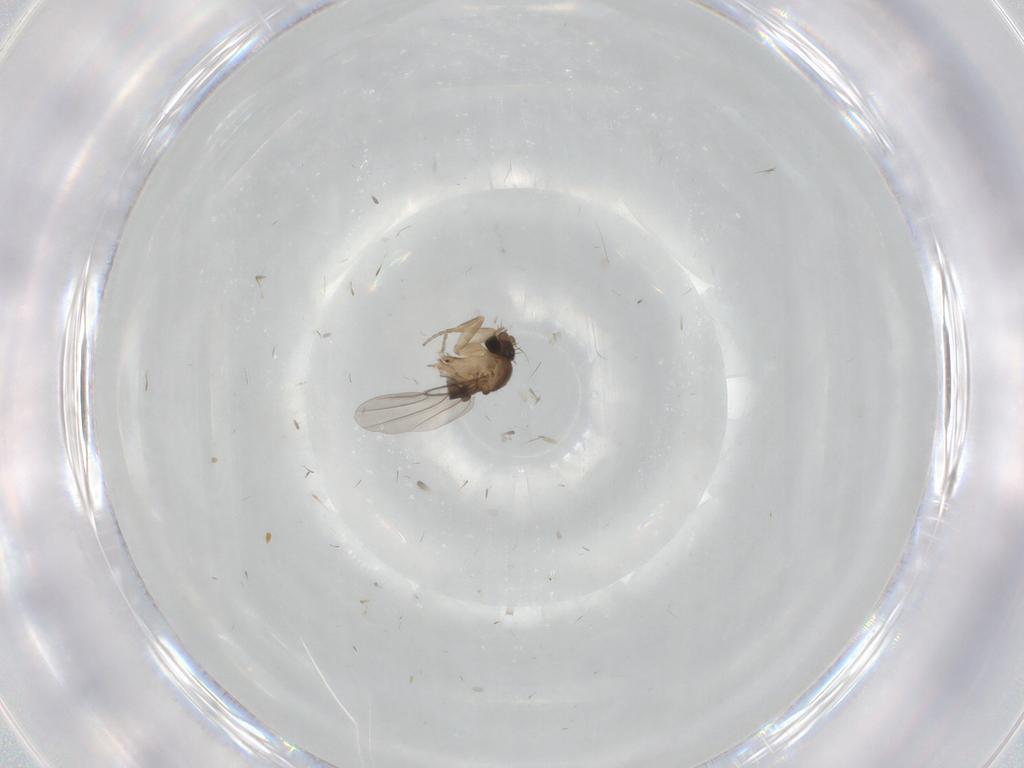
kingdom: Animalia
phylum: Arthropoda
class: Insecta
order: Diptera
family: Phoridae
